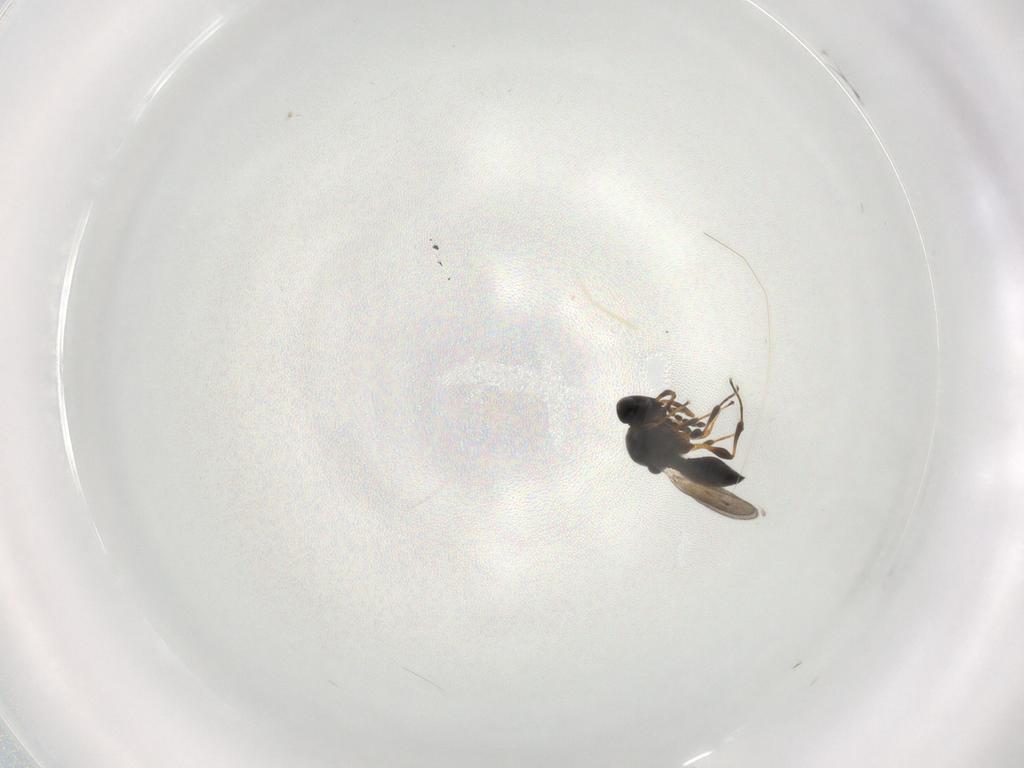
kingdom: Animalia
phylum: Arthropoda
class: Insecta
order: Hymenoptera
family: Platygastridae
